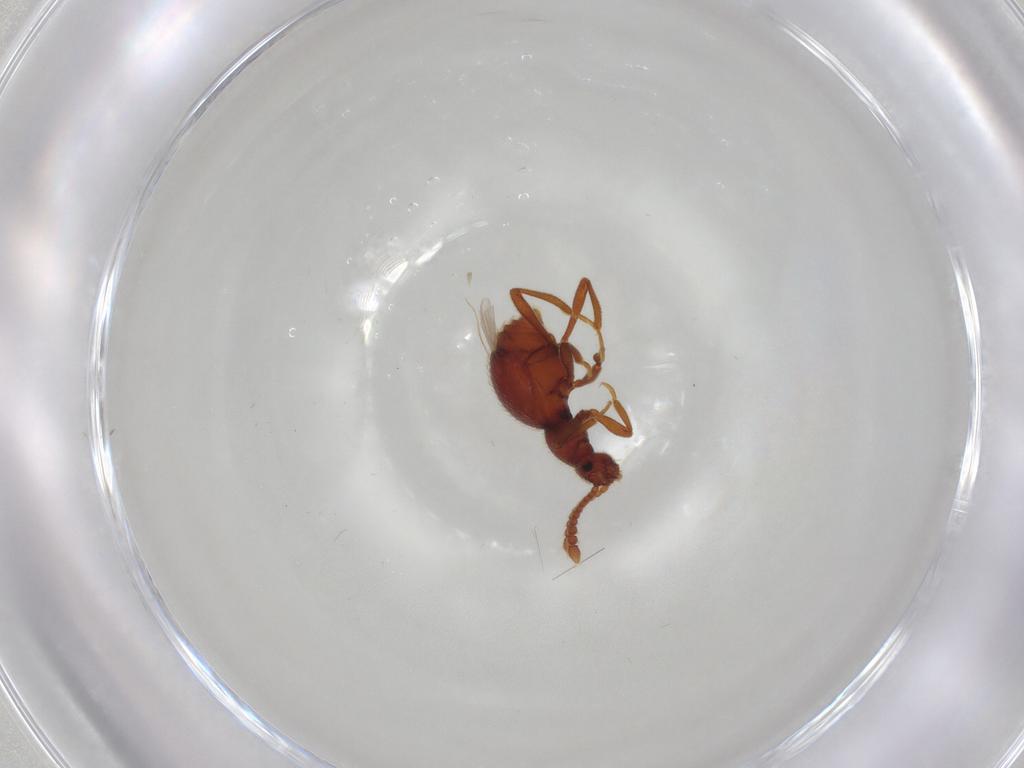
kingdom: Animalia
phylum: Arthropoda
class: Insecta
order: Coleoptera
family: Staphylinidae
